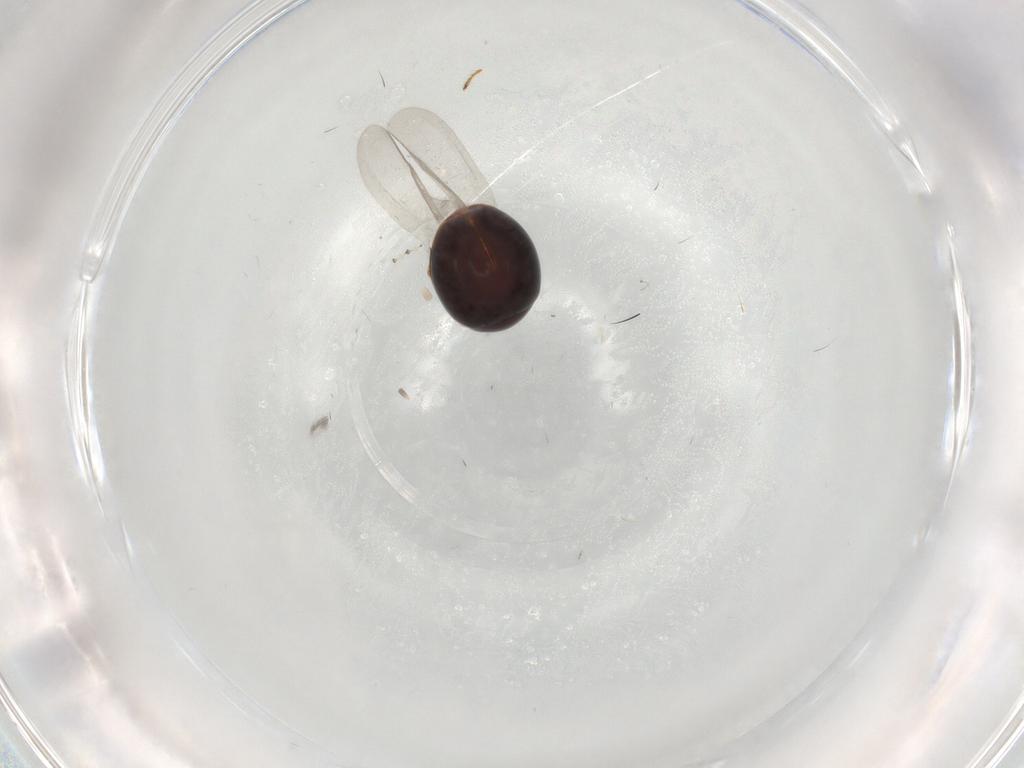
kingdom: Animalia
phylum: Arthropoda
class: Insecta
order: Coleoptera
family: Corylophidae
